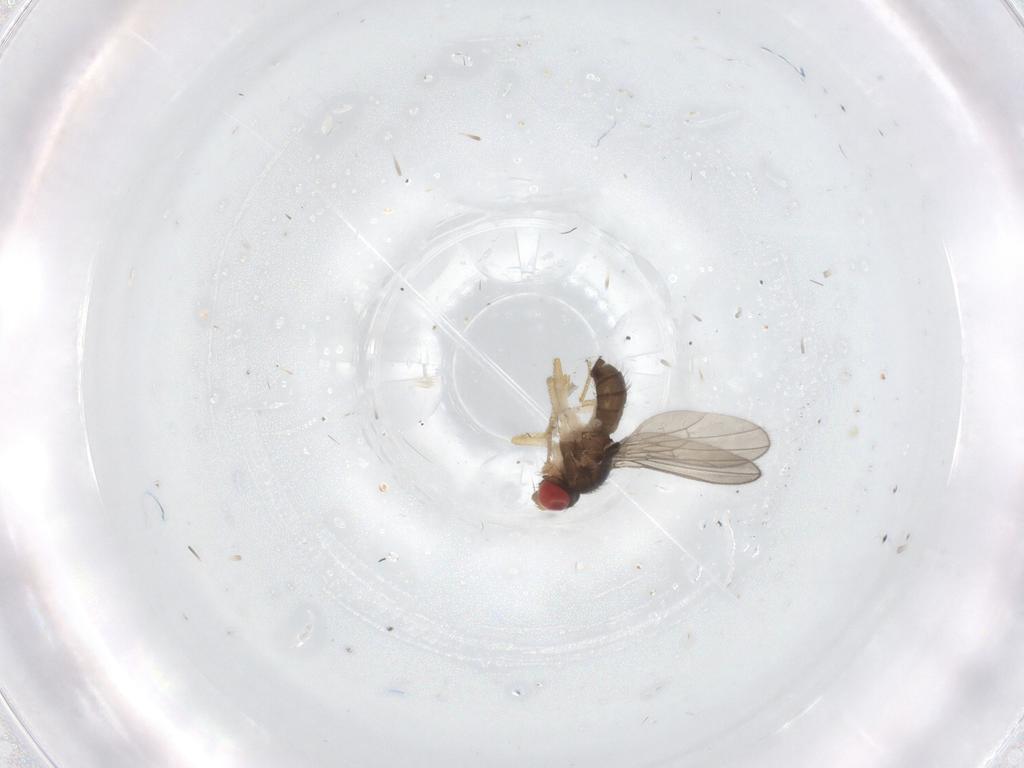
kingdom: Animalia
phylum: Arthropoda
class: Insecta
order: Diptera
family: Drosophilidae
